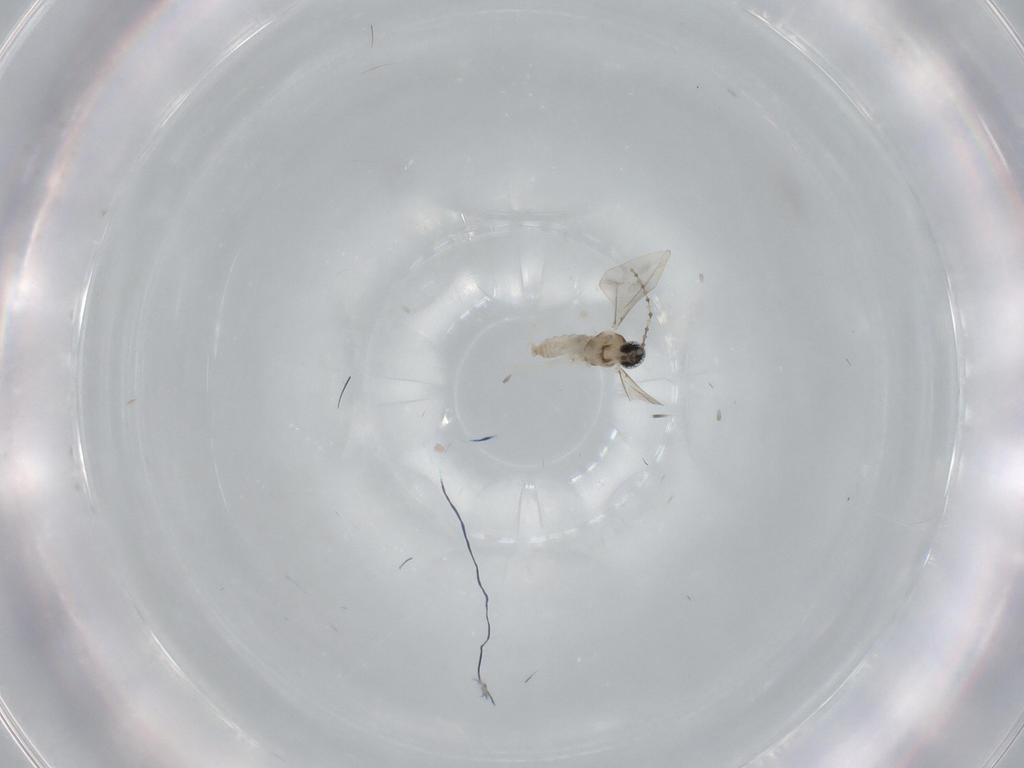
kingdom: Animalia
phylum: Arthropoda
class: Insecta
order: Diptera
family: Cecidomyiidae
